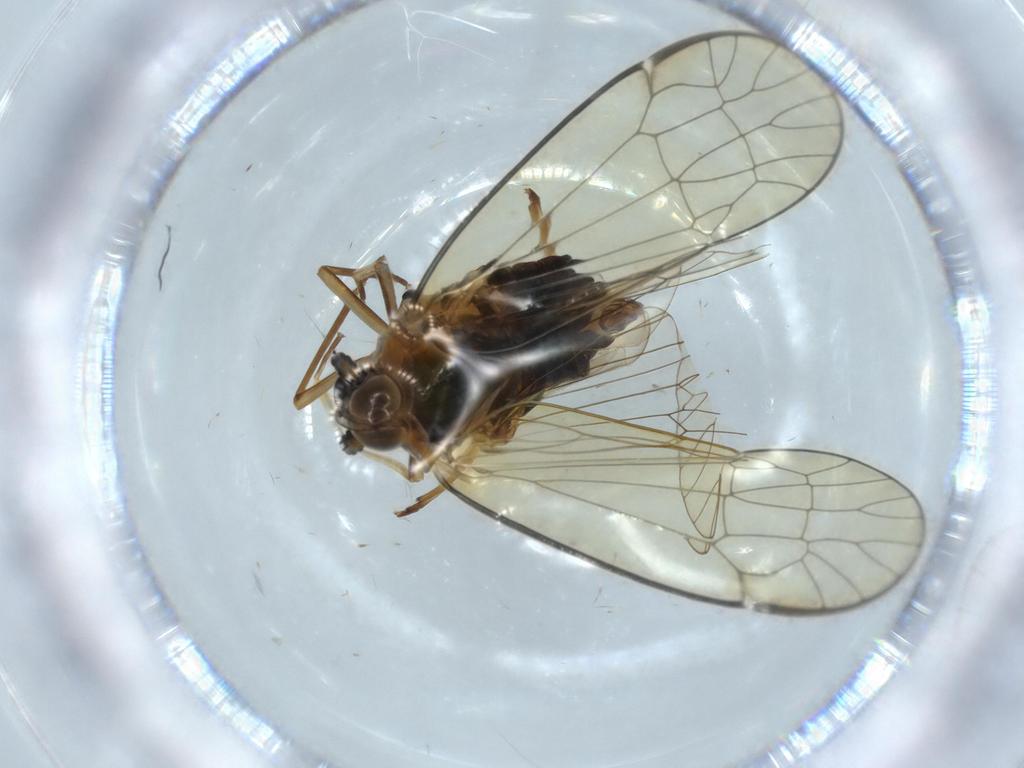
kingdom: Animalia
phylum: Arthropoda
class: Insecta
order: Hemiptera
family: Kinnaridae
